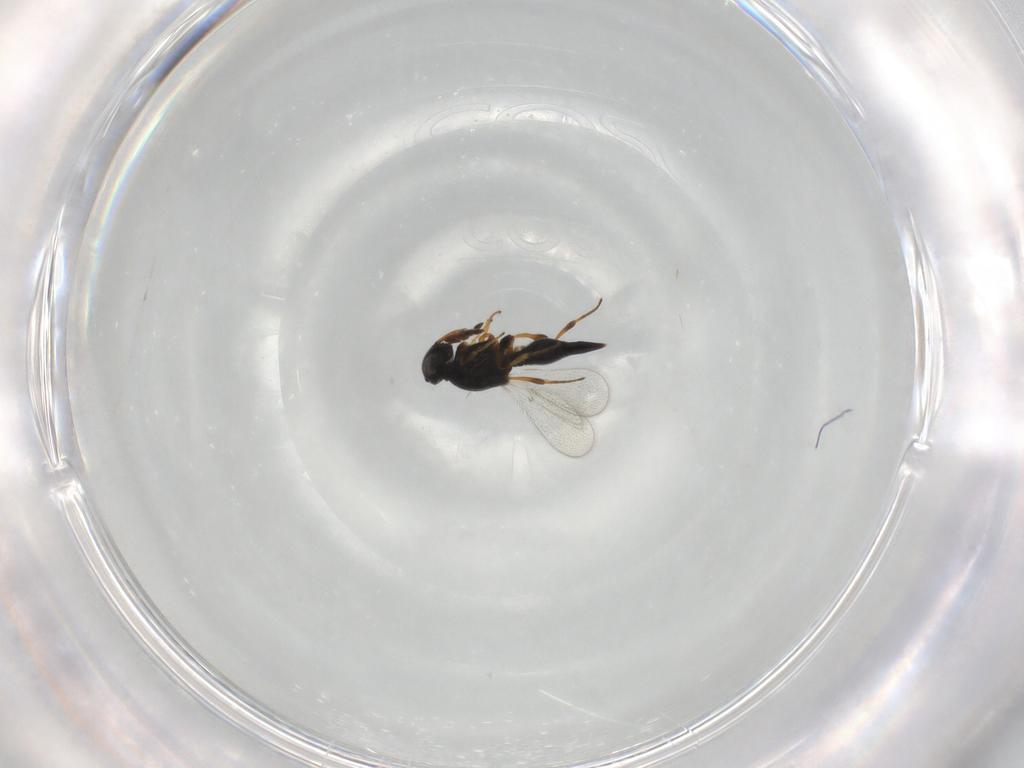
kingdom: Animalia
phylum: Arthropoda
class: Insecta
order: Hymenoptera
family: Platygastridae
